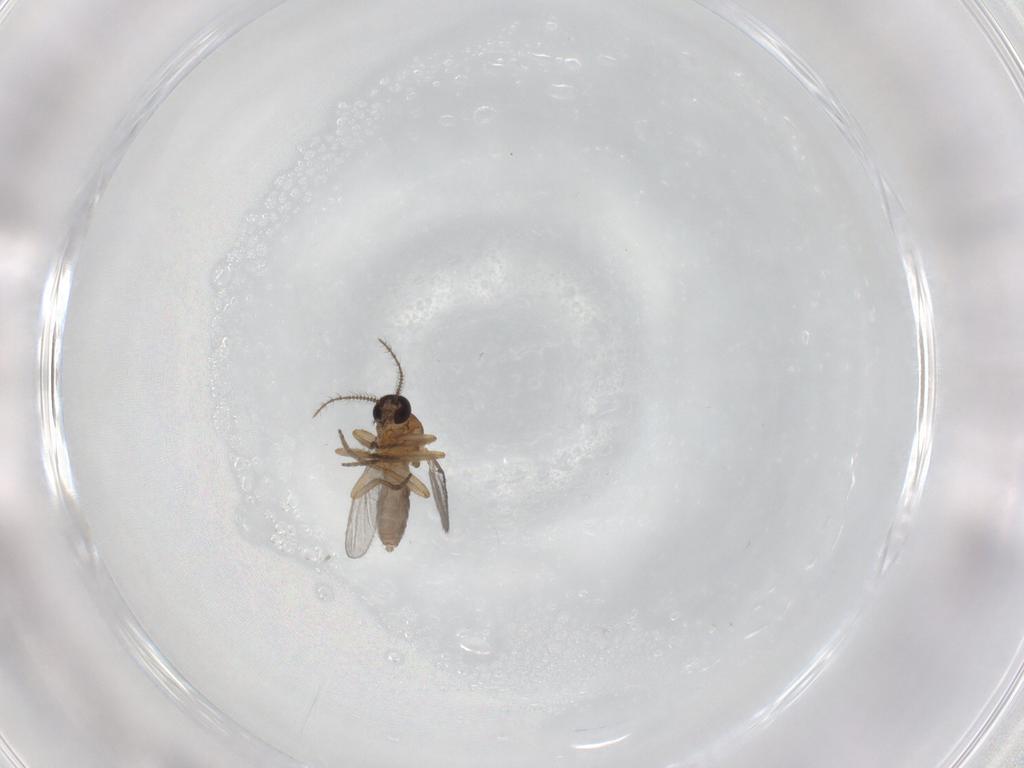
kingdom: Animalia
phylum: Arthropoda
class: Insecta
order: Diptera
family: Ceratopogonidae
